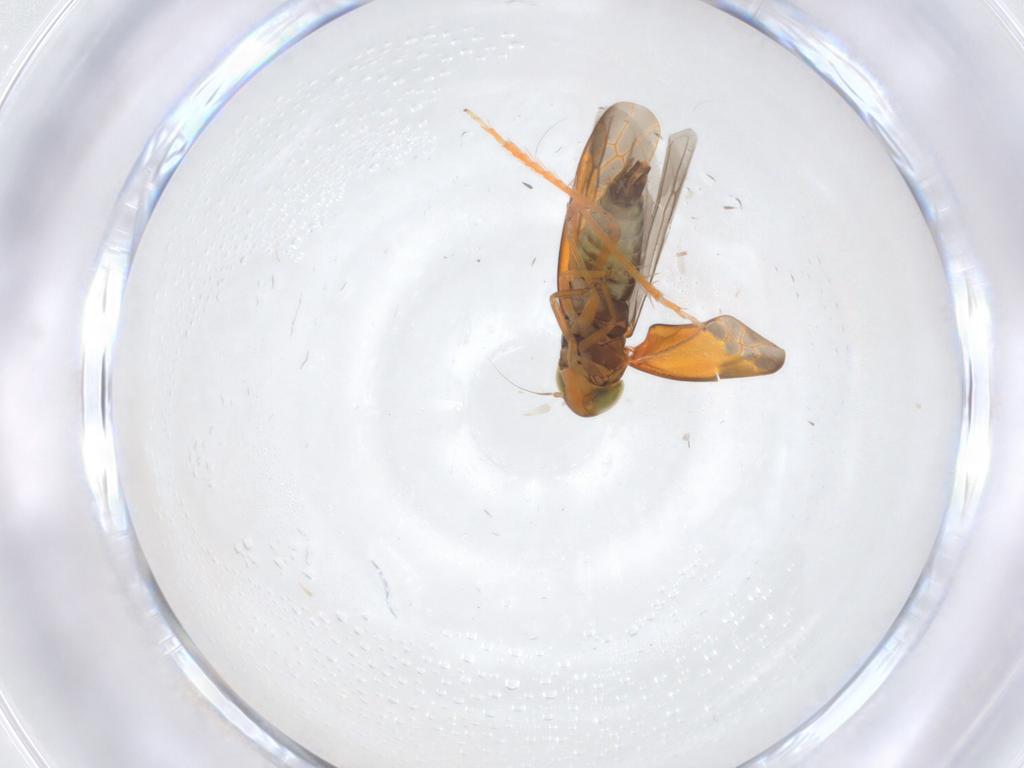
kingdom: Animalia
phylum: Arthropoda
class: Insecta
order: Hemiptera
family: Cicadellidae
